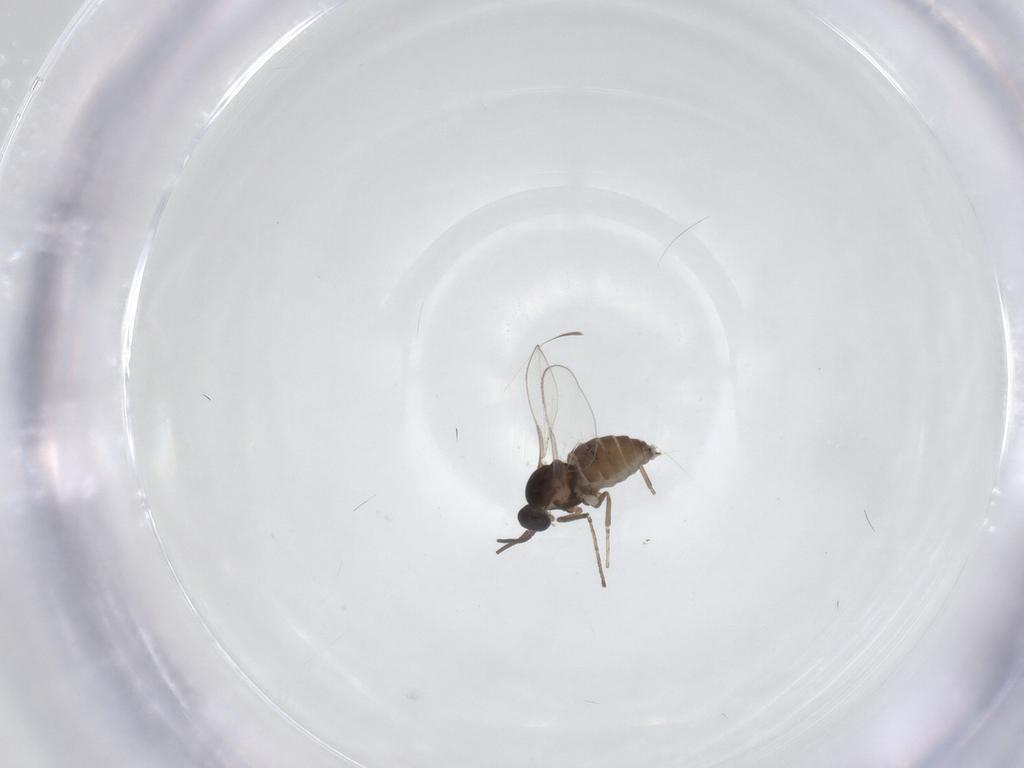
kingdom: Animalia
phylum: Arthropoda
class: Insecta
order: Diptera
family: Cecidomyiidae
